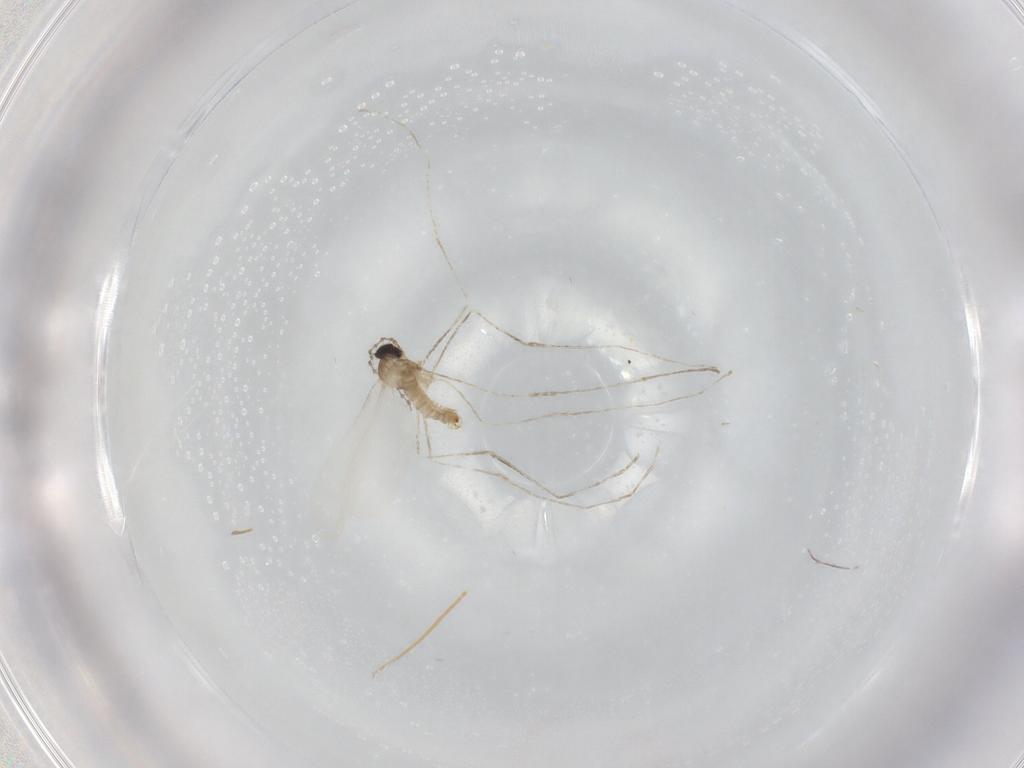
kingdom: Animalia
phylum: Arthropoda
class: Insecta
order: Diptera
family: Cecidomyiidae
